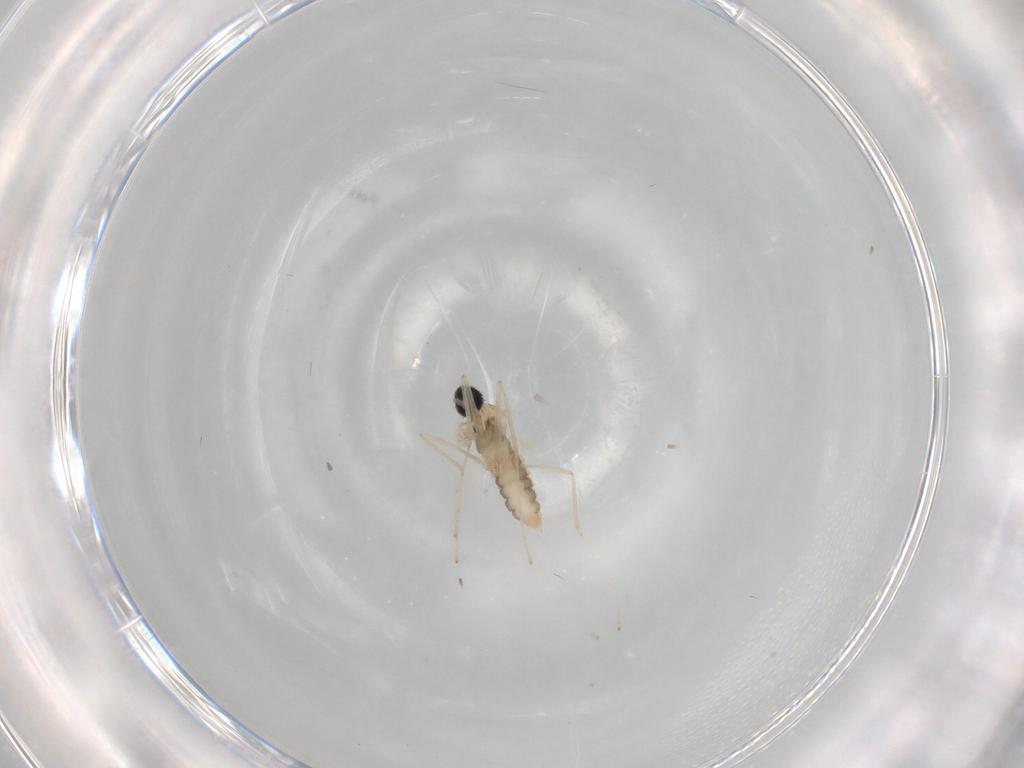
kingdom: Animalia
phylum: Arthropoda
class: Insecta
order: Diptera
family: Cecidomyiidae
